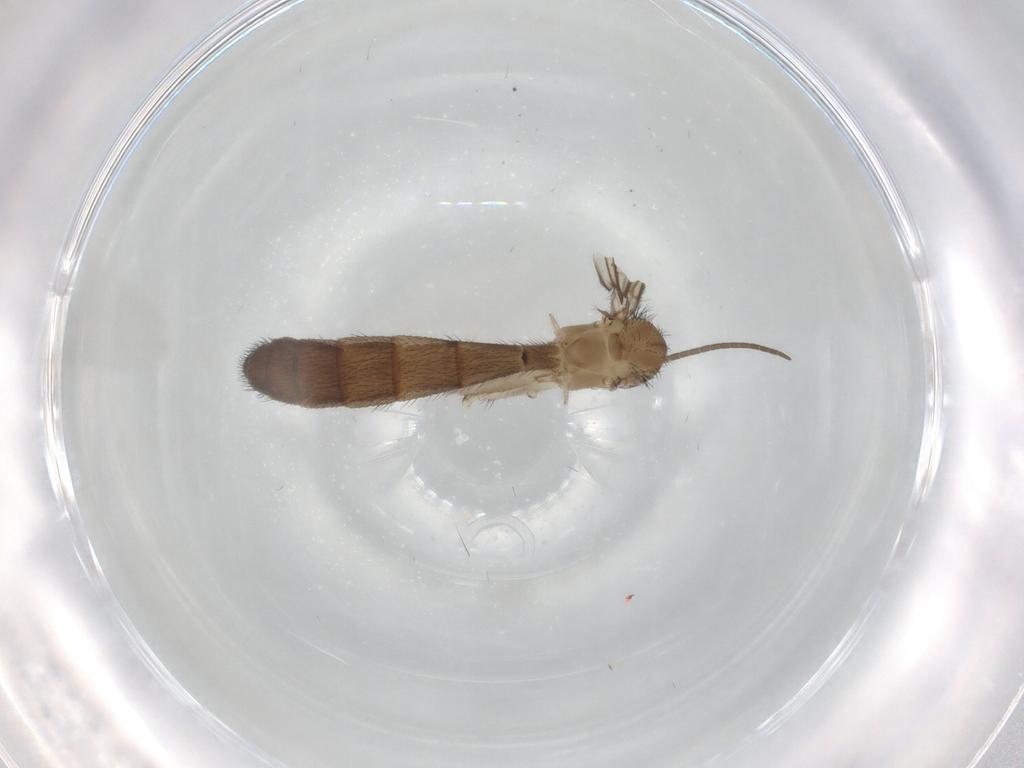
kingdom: Animalia
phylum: Arthropoda
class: Insecta
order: Diptera
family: Keroplatidae
